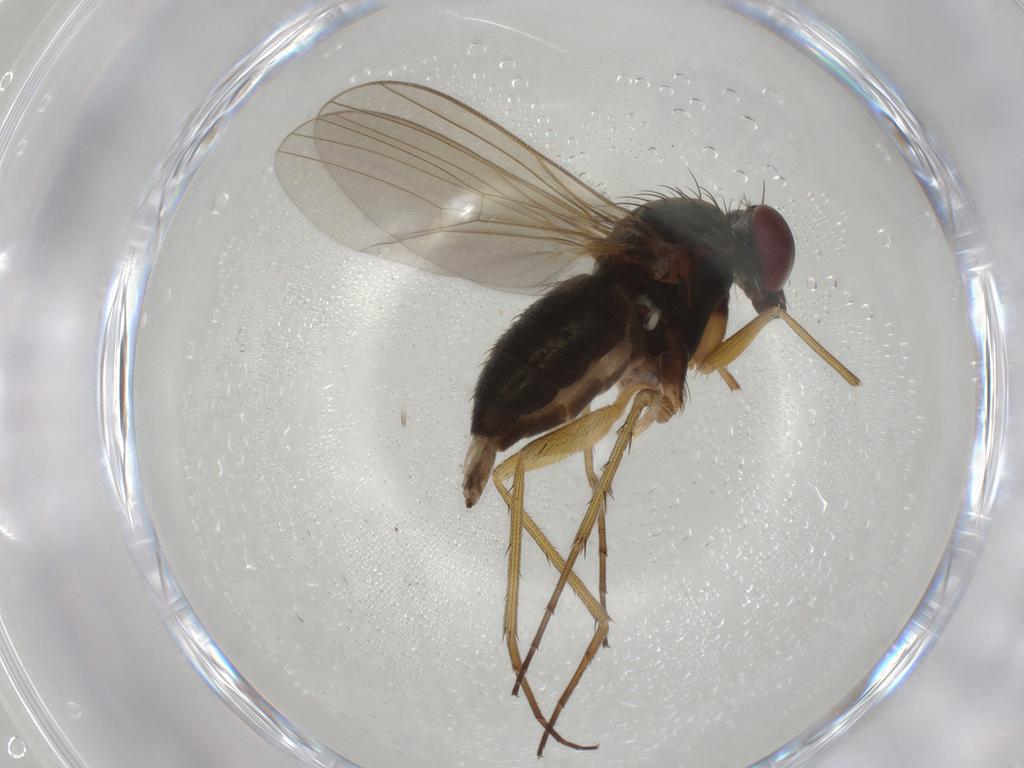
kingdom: Animalia
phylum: Arthropoda
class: Insecta
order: Diptera
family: Dolichopodidae
